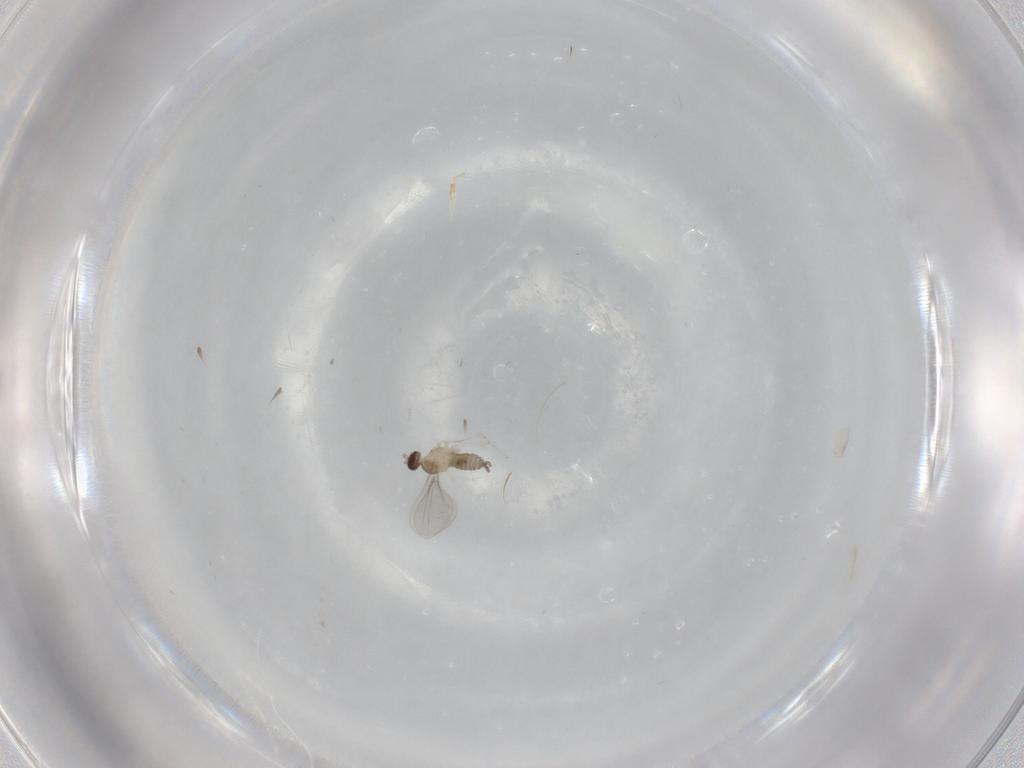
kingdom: Animalia
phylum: Arthropoda
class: Insecta
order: Diptera
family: Cecidomyiidae
